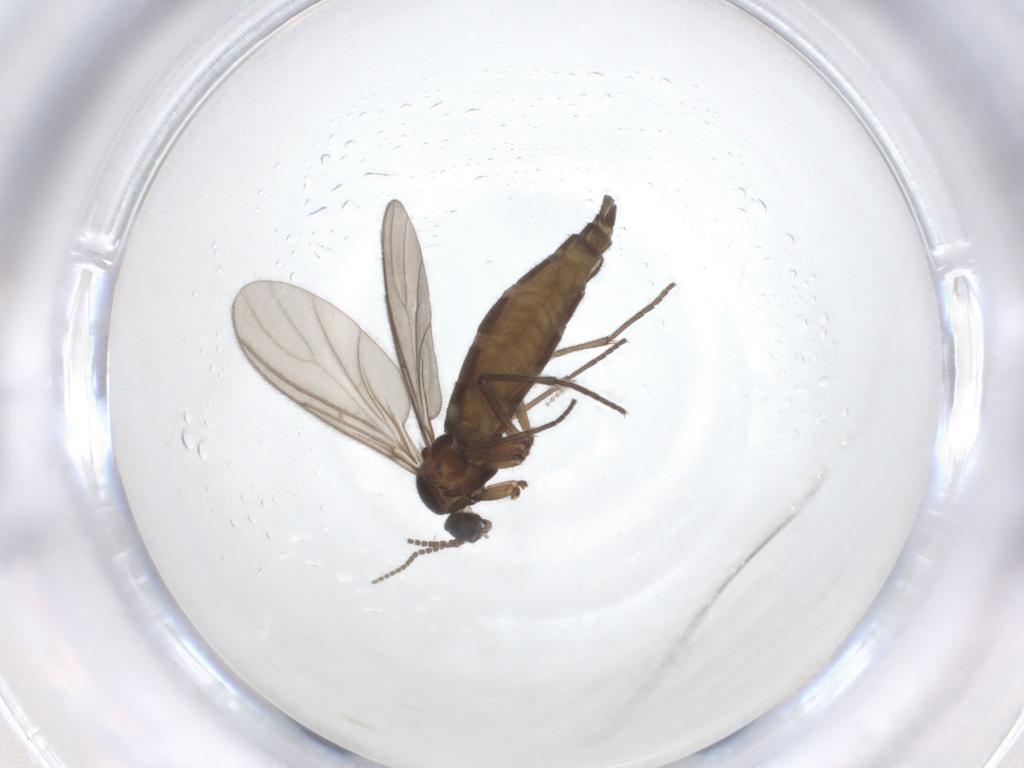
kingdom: Animalia
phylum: Arthropoda
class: Insecta
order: Diptera
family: Sciaridae
